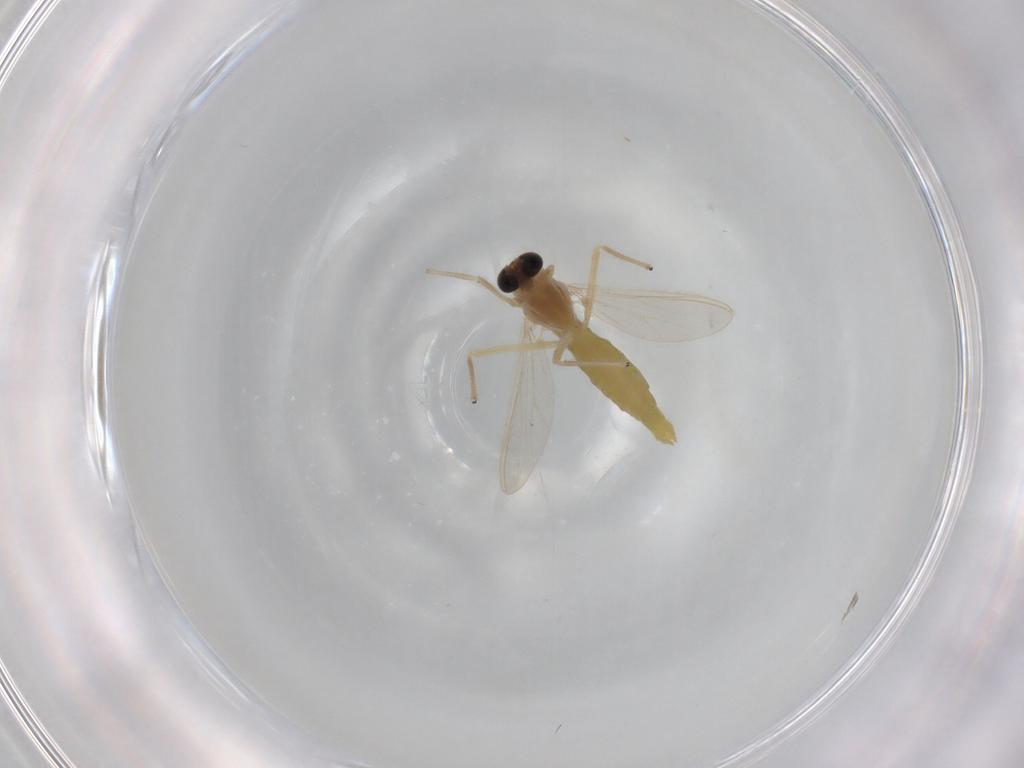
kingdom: Animalia
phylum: Arthropoda
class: Insecta
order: Diptera
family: Chironomidae
